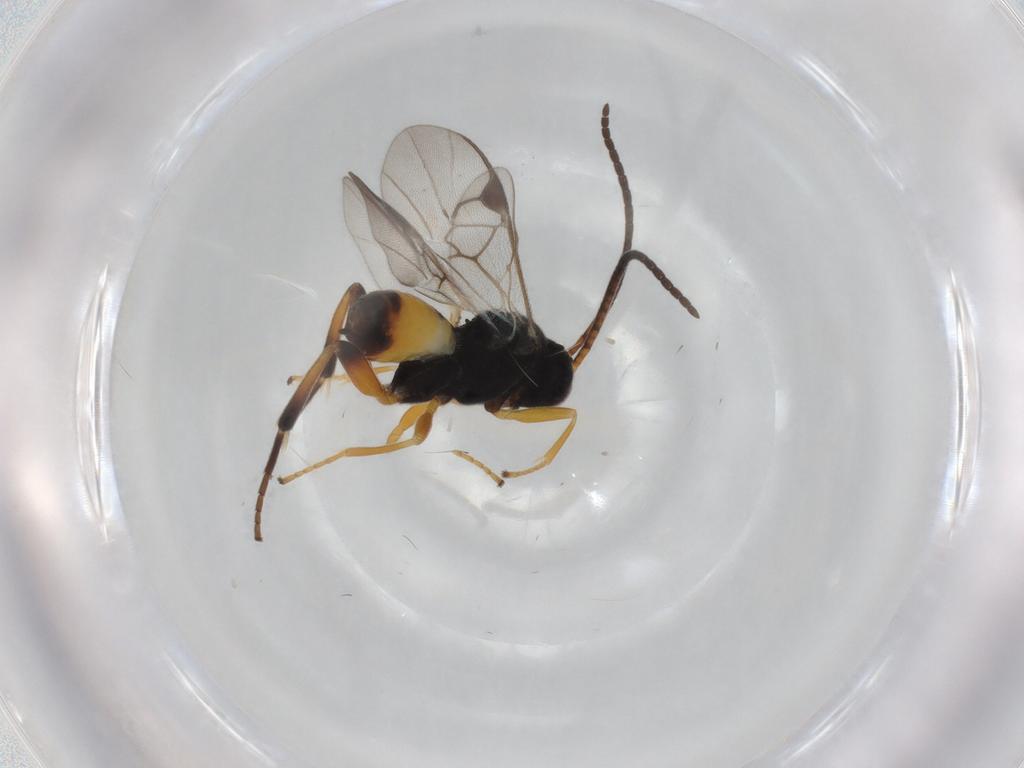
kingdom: Animalia
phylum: Arthropoda
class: Insecta
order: Hymenoptera
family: Braconidae
